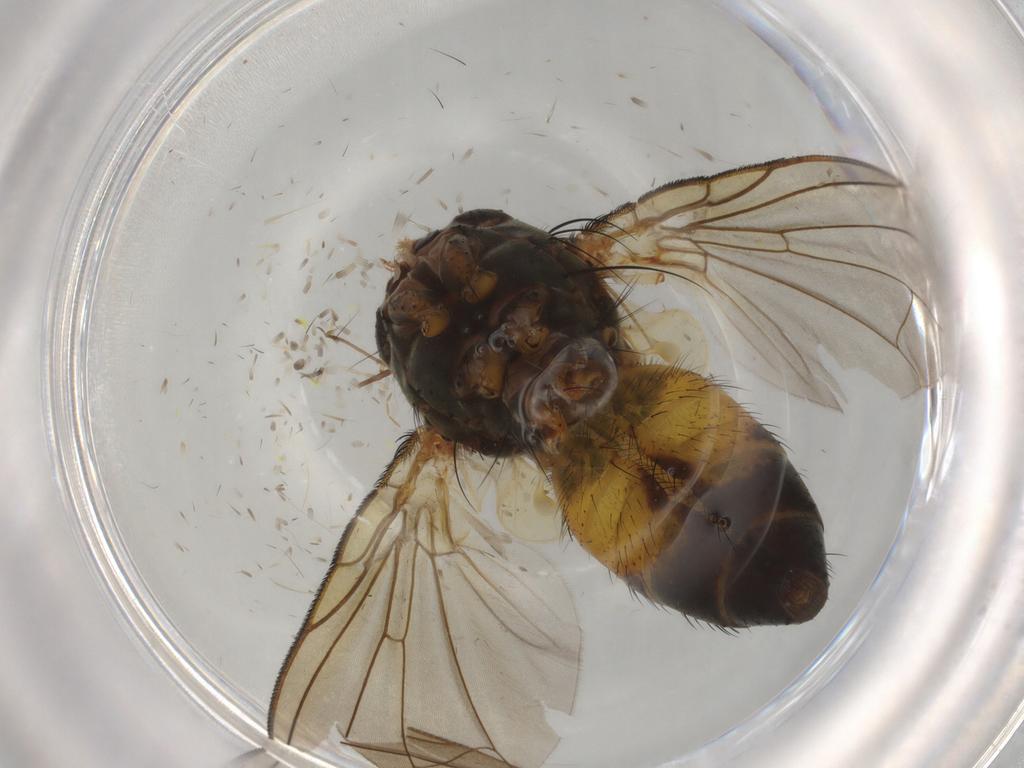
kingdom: Animalia
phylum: Arthropoda
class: Insecta
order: Diptera
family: Tachinidae
